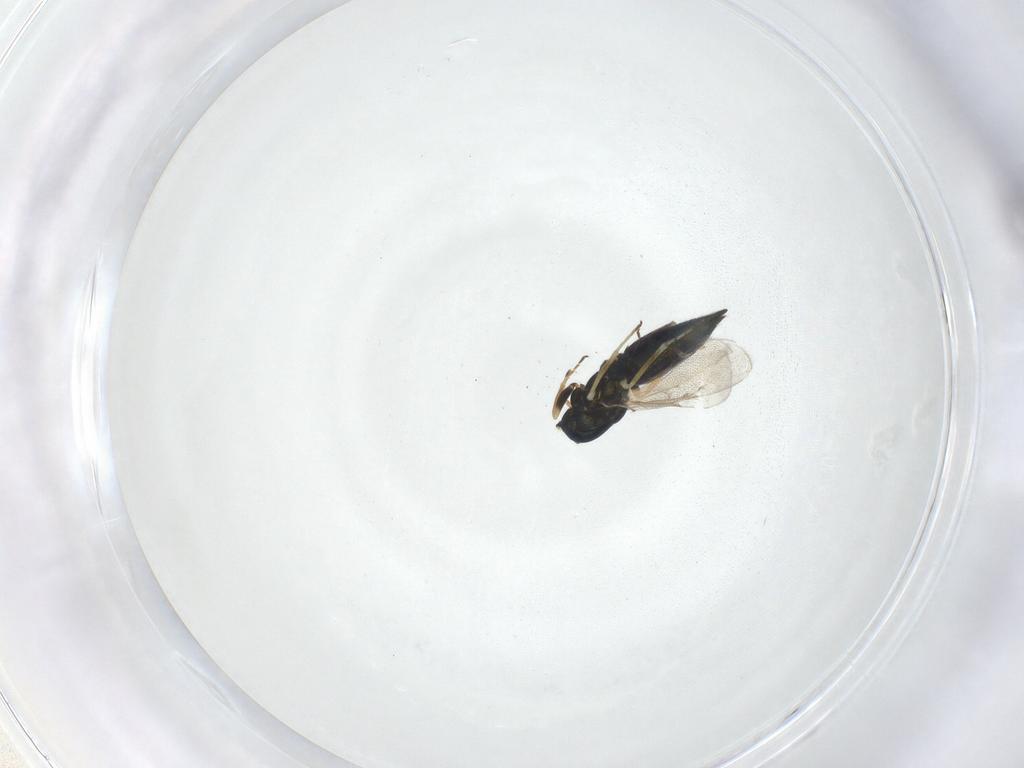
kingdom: Animalia
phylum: Arthropoda
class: Insecta
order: Hymenoptera
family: Eulophidae
